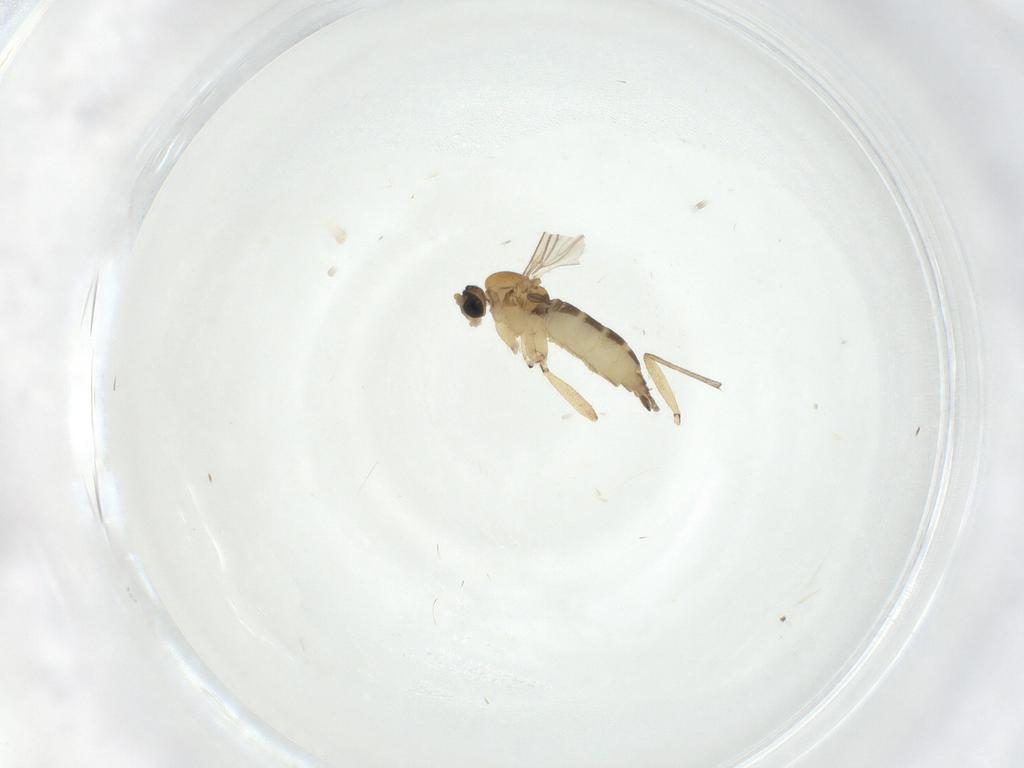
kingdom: Animalia
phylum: Arthropoda
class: Insecta
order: Diptera
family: Sciaridae
